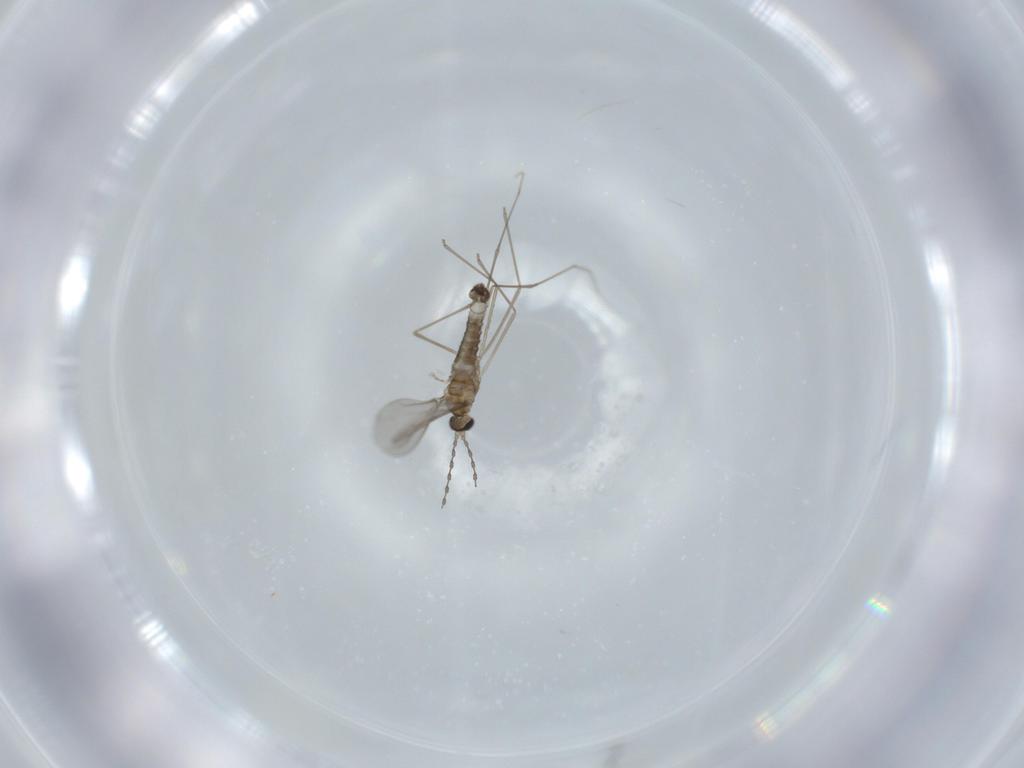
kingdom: Animalia
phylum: Arthropoda
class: Insecta
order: Diptera
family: Cecidomyiidae
